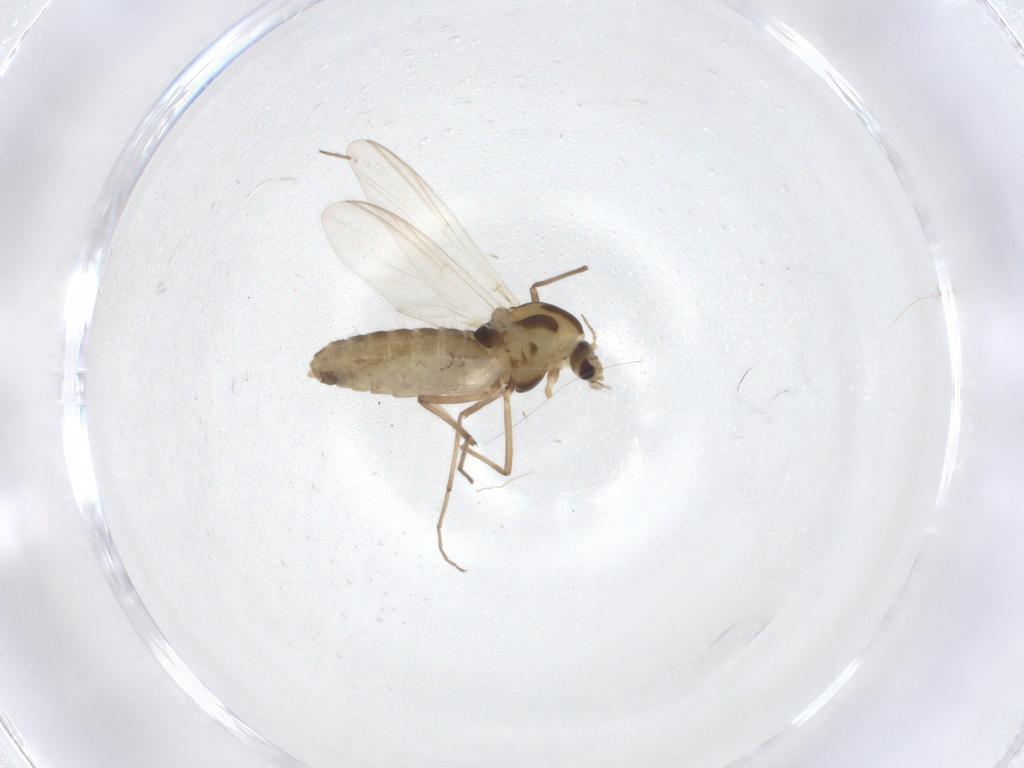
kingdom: Animalia
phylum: Arthropoda
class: Insecta
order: Diptera
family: Chironomidae
